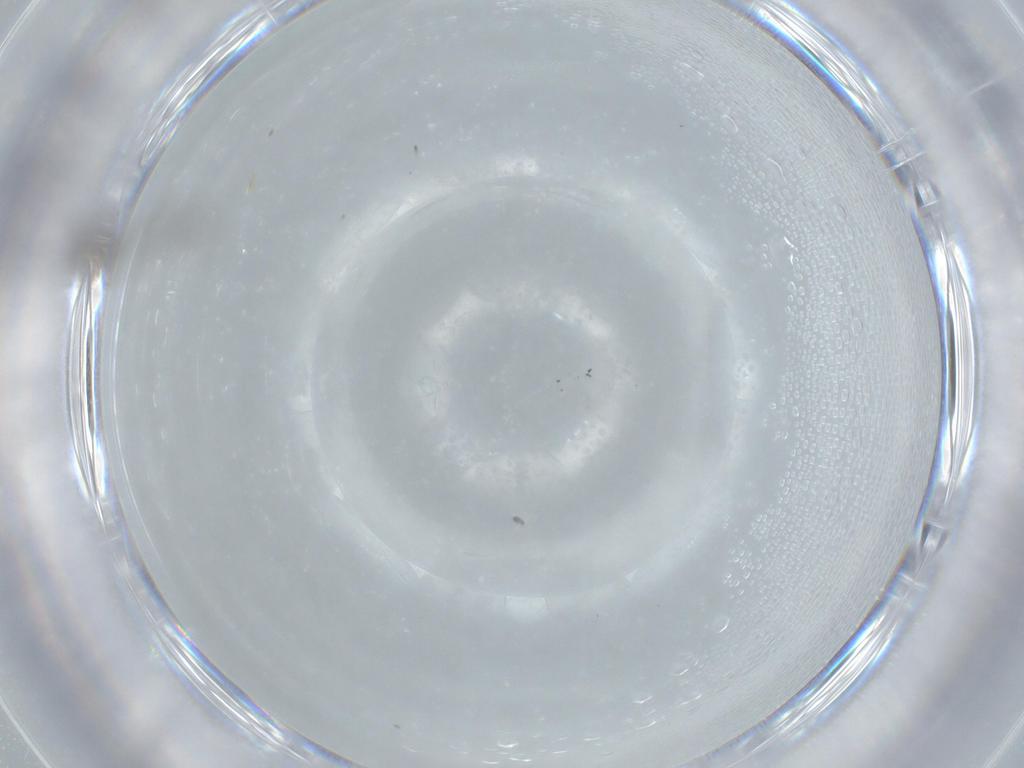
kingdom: Animalia
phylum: Arthropoda
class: Insecta
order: Diptera
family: Cecidomyiidae
